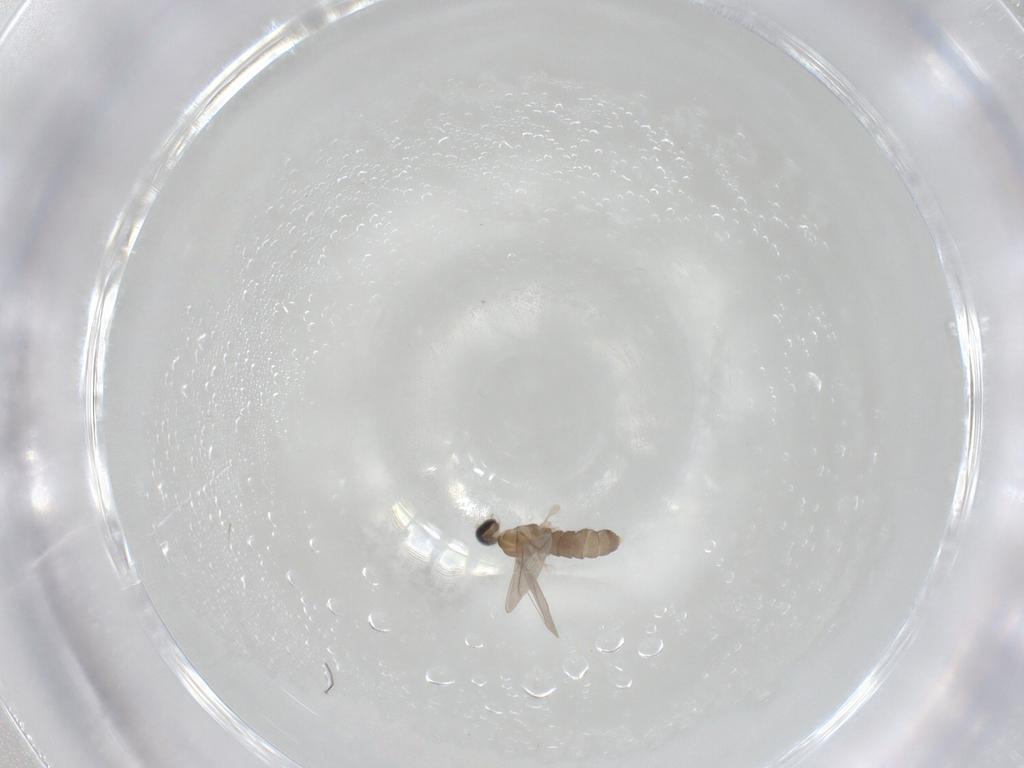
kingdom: Animalia
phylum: Arthropoda
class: Insecta
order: Diptera
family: Cecidomyiidae
